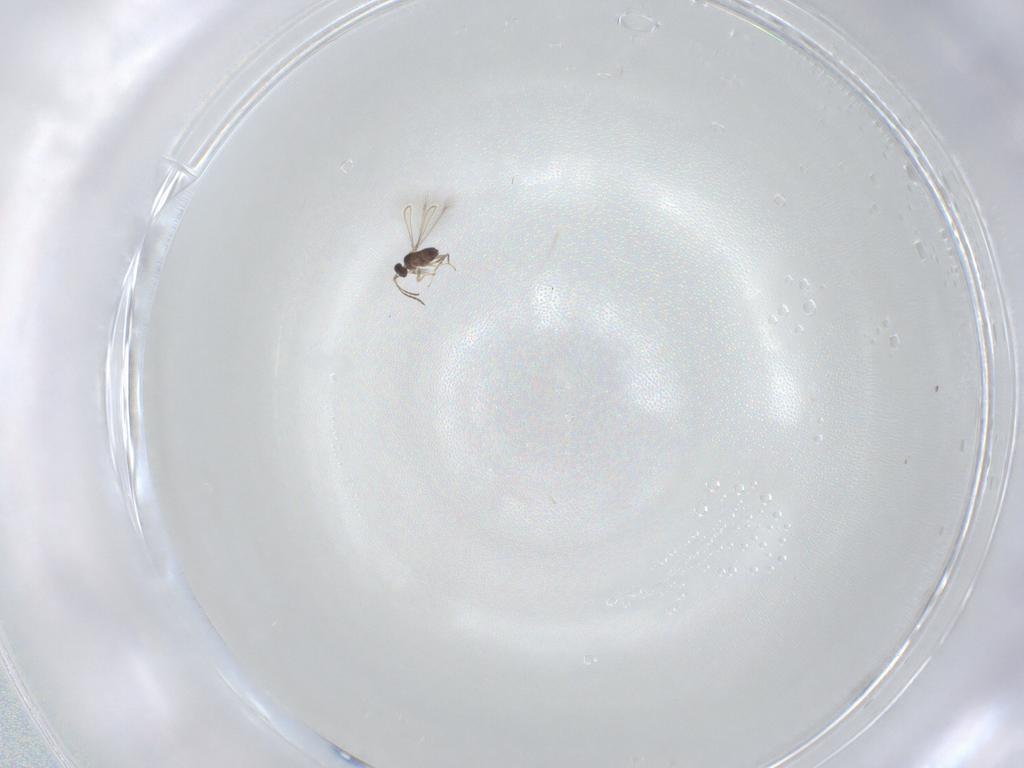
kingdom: Animalia
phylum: Arthropoda
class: Insecta
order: Hymenoptera
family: Mymaridae
